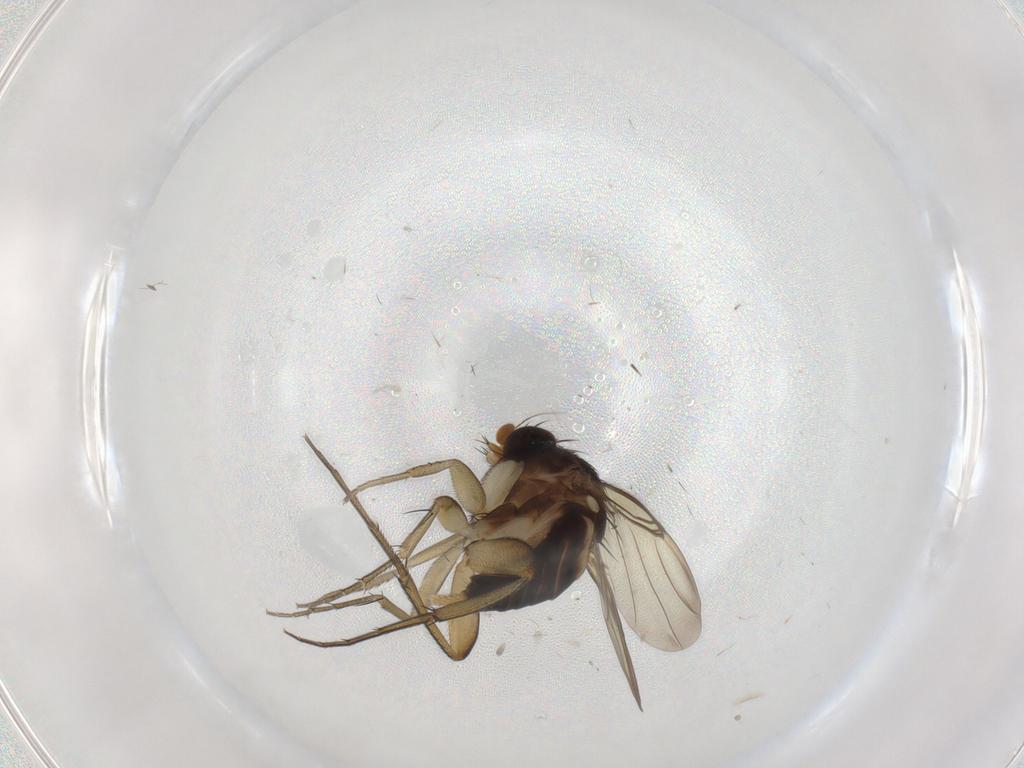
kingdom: Animalia
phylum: Arthropoda
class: Insecta
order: Diptera
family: Phoridae
